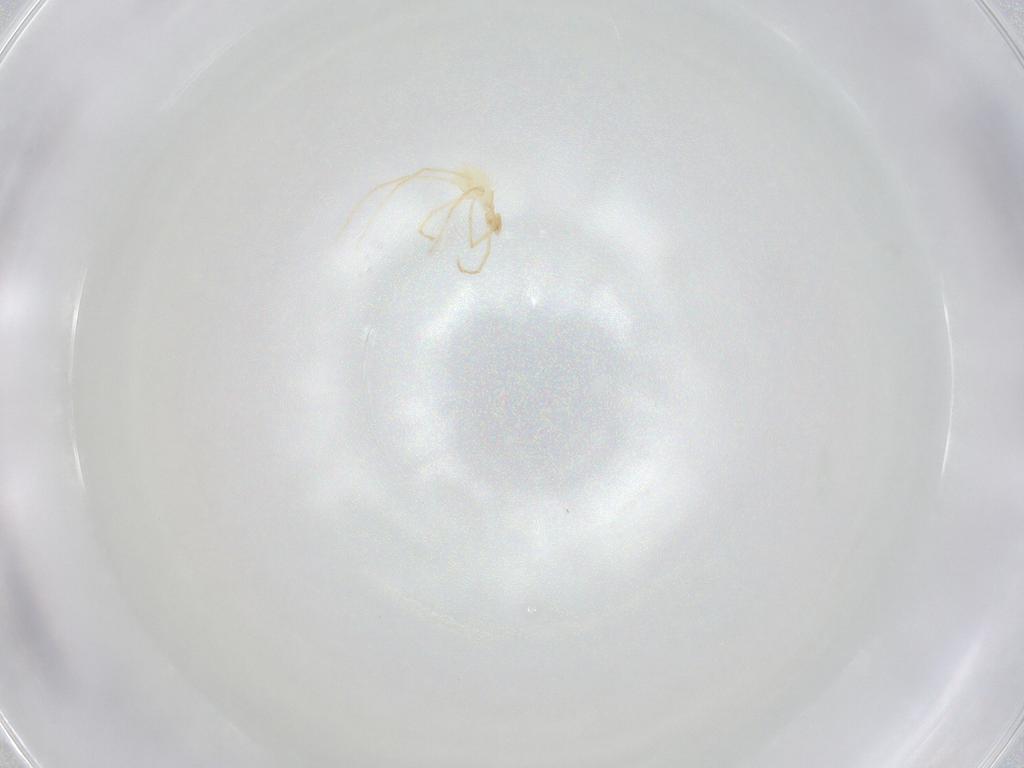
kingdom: Animalia
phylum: Arthropoda
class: Arachnida
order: Trombidiformes
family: Erythraeidae
